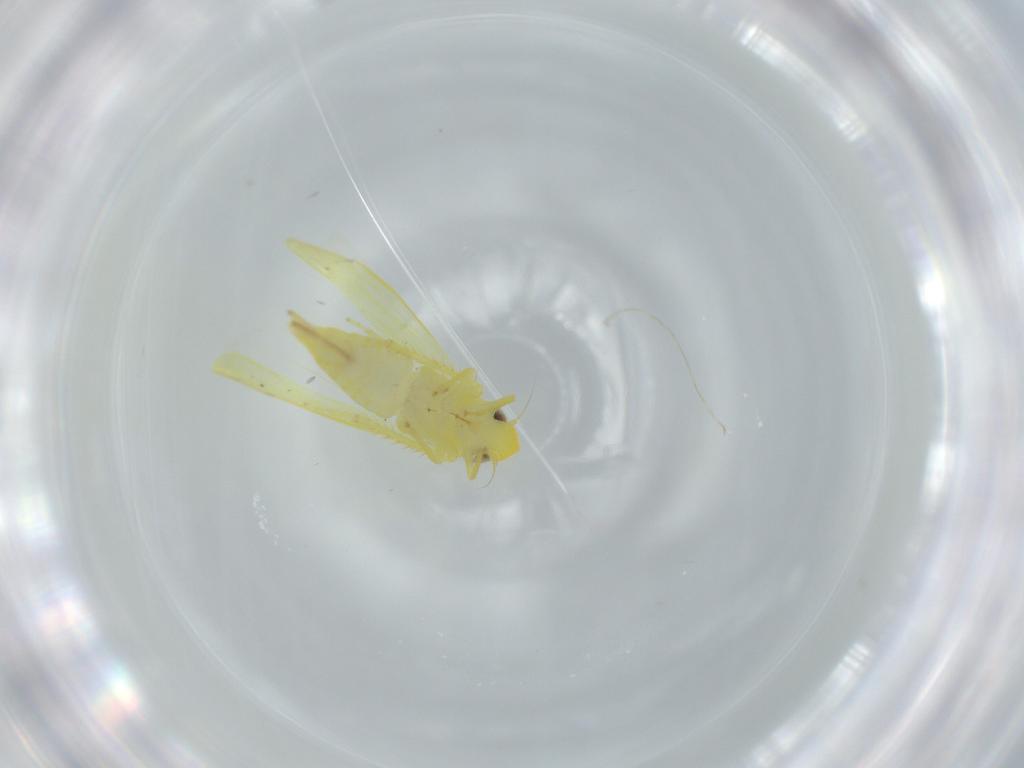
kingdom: Animalia
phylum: Arthropoda
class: Insecta
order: Hemiptera
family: Cicadellidae
